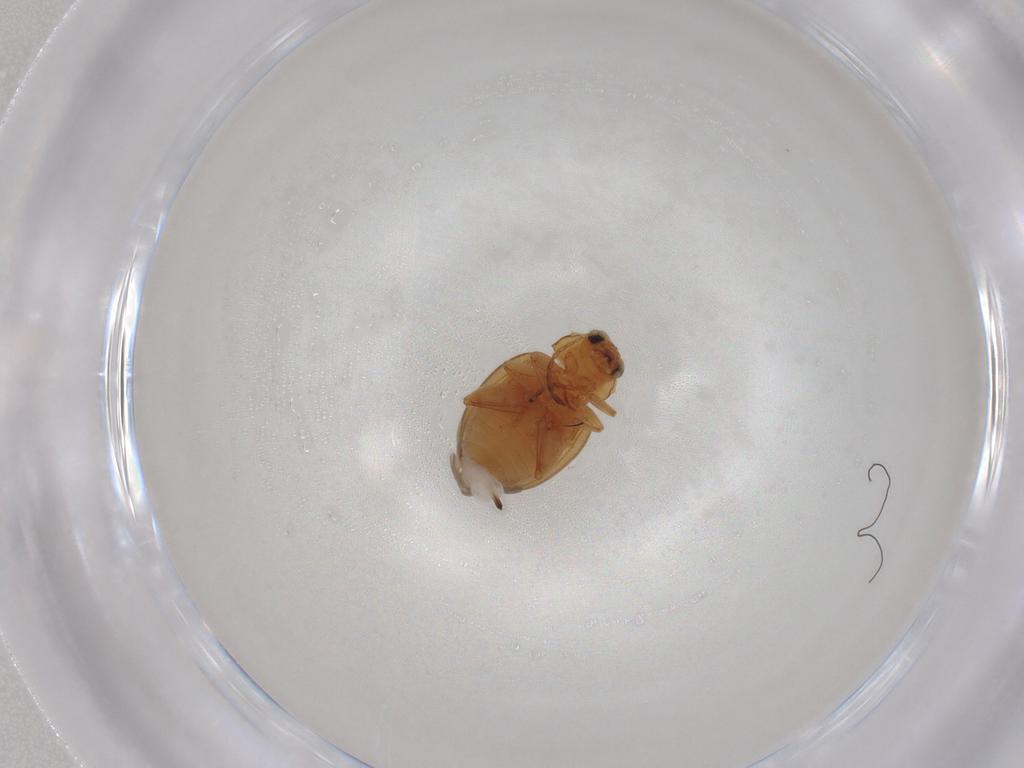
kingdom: Animalia
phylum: Arthropoda
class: Insecta
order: Coleoptera
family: Chrysomelidae
